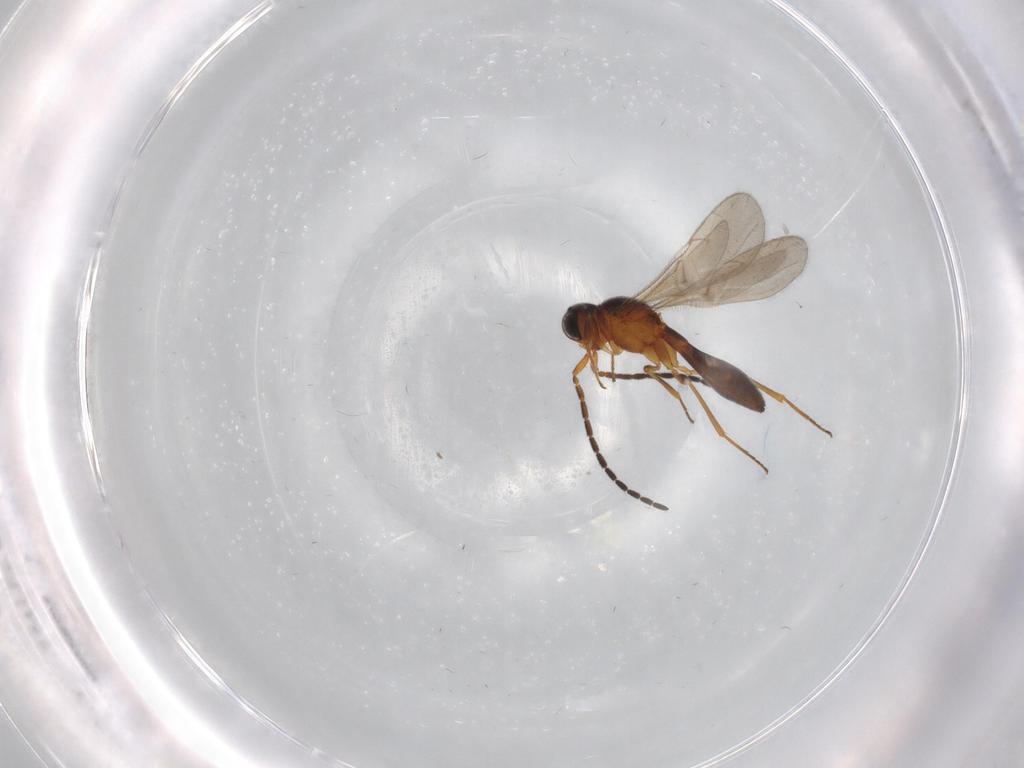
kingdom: Animalia
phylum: Arthropoda
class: Insecta
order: Hymenoptera
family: Scelionidae
